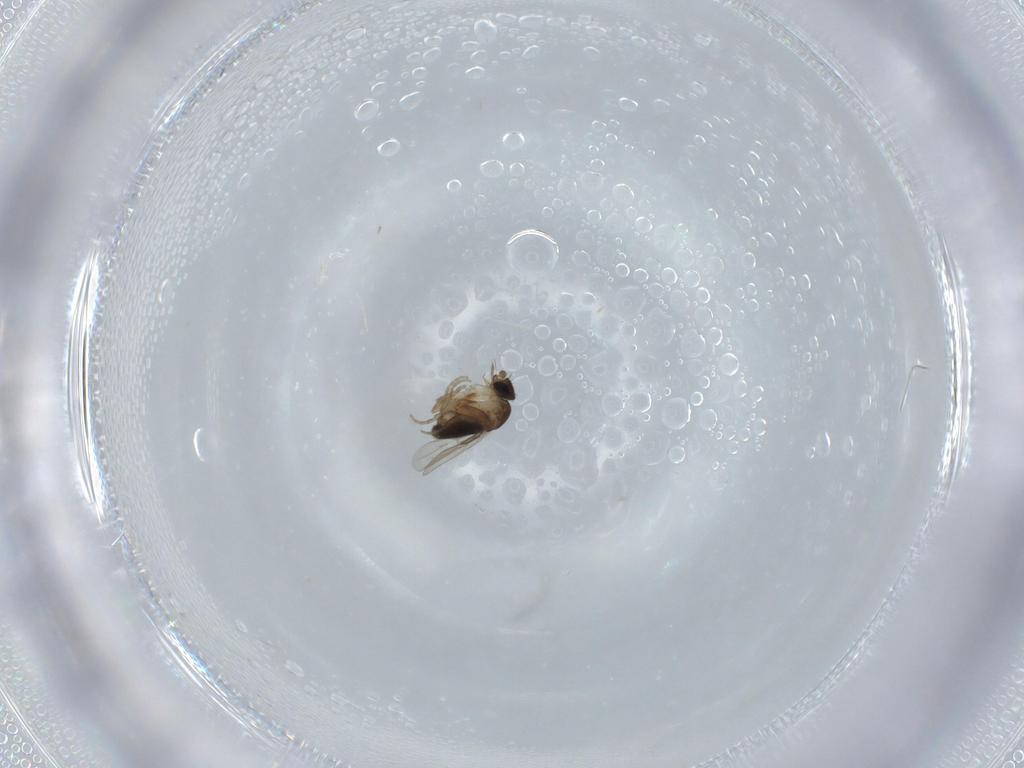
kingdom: Animalia
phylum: Arthropoda
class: Insecta
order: Diptera
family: Phoridae
